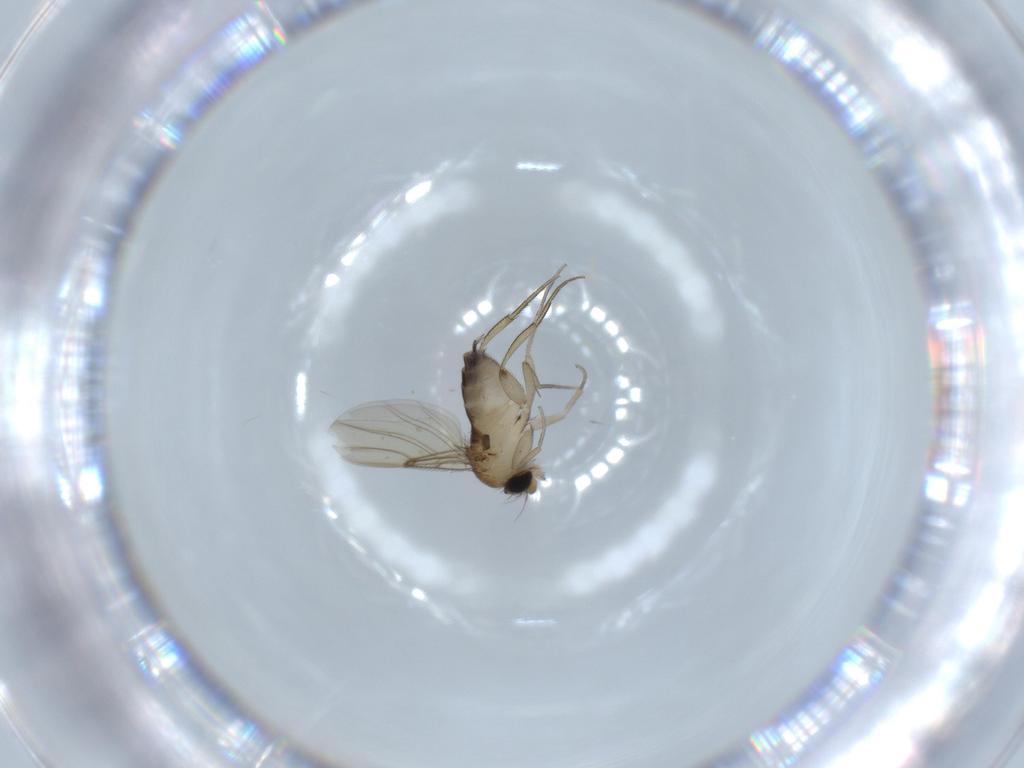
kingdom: Animalia
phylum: Arthropoda
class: Insecta
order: Diptera
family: Phoridae
